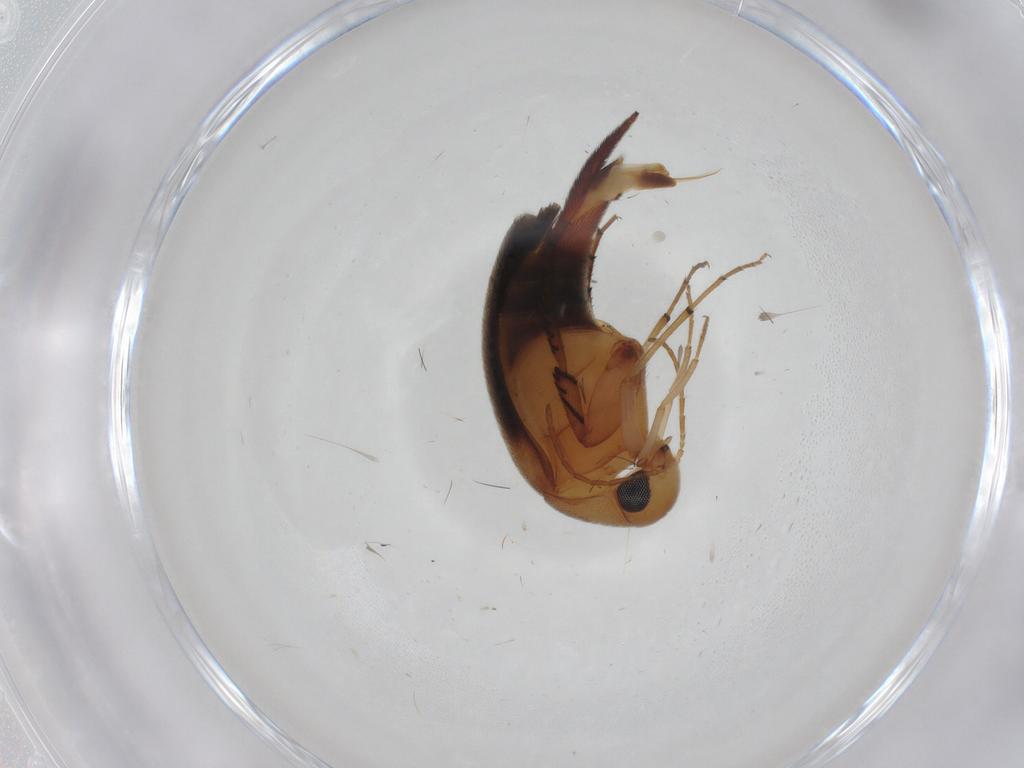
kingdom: Animalia
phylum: Arthropoda
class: Insecta
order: Coleoptera
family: Mordellidae
